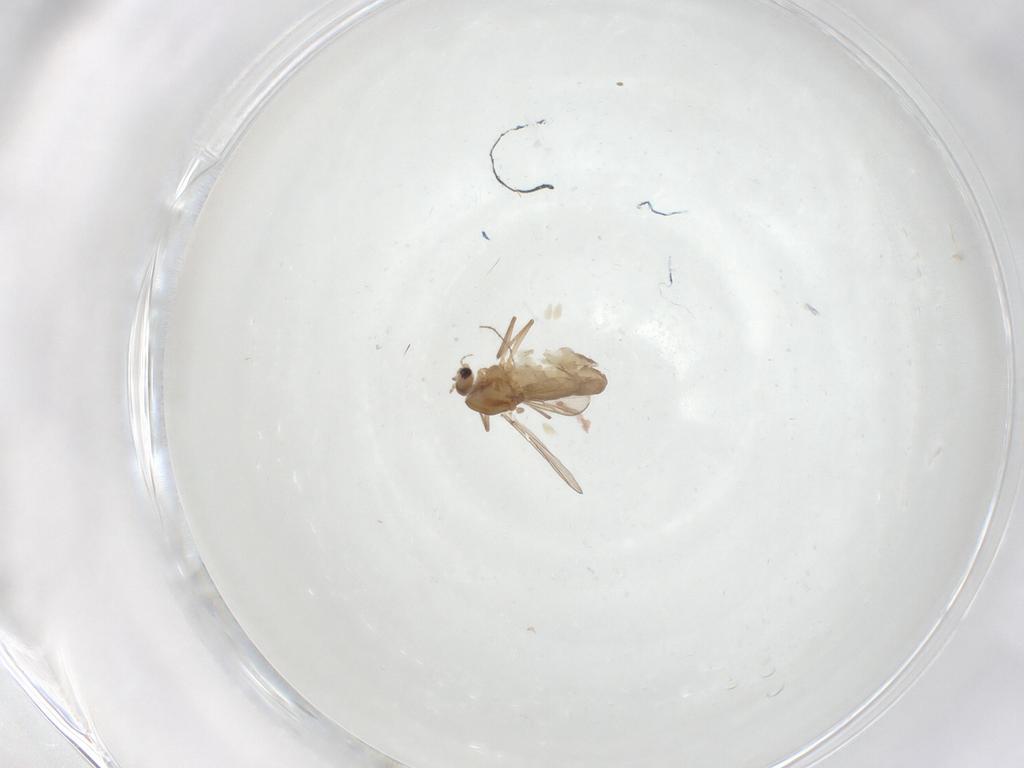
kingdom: Animalia
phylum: Arthropoda
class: Insecta
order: Diptera
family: Chironomidae
